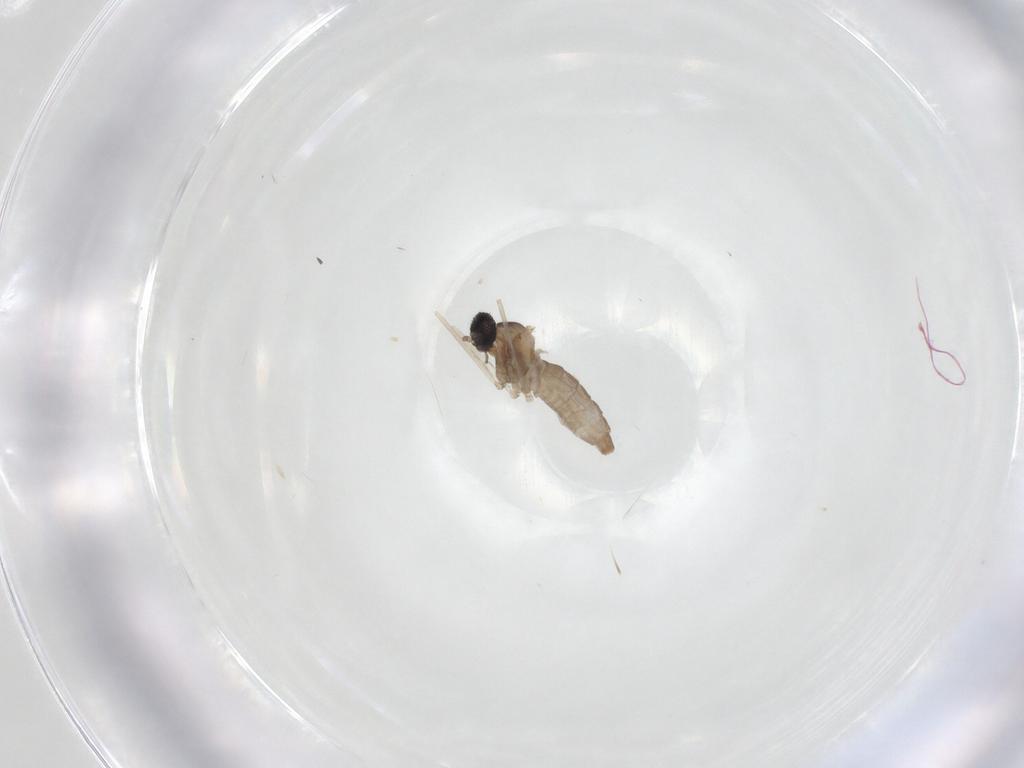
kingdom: Animalia
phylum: Arthropoda
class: Insecta
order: Diptera
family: Cecidomyiidae
